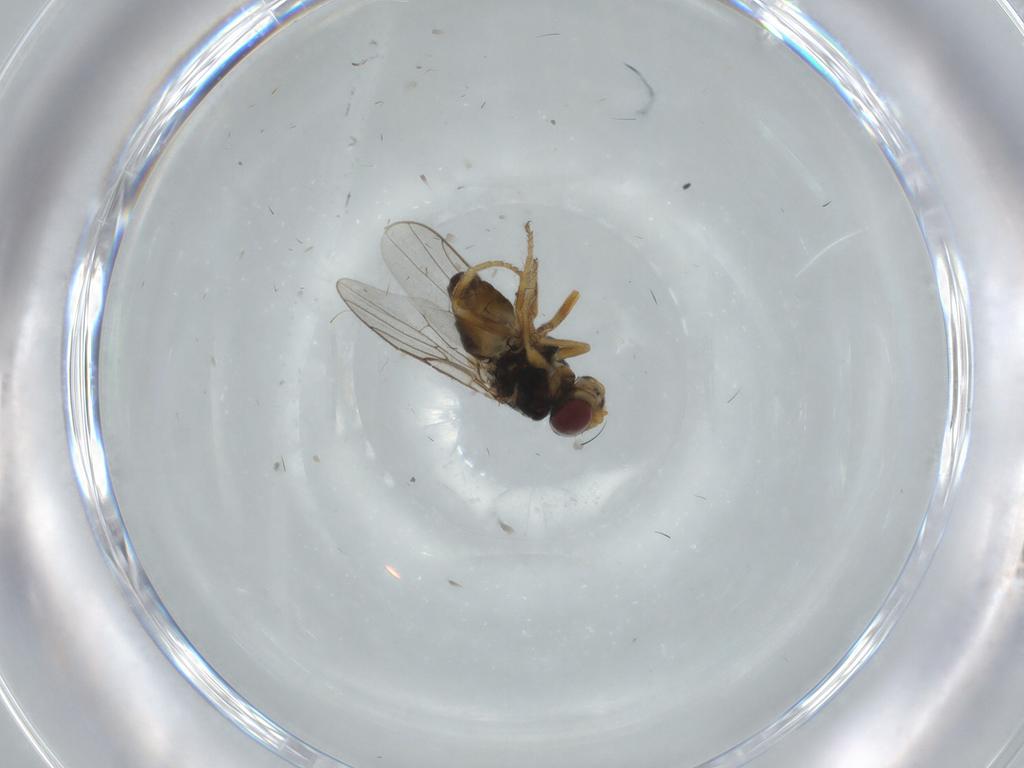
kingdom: Animalia
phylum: Arthropoda
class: Insecta
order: Diptera
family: Chloropidae
